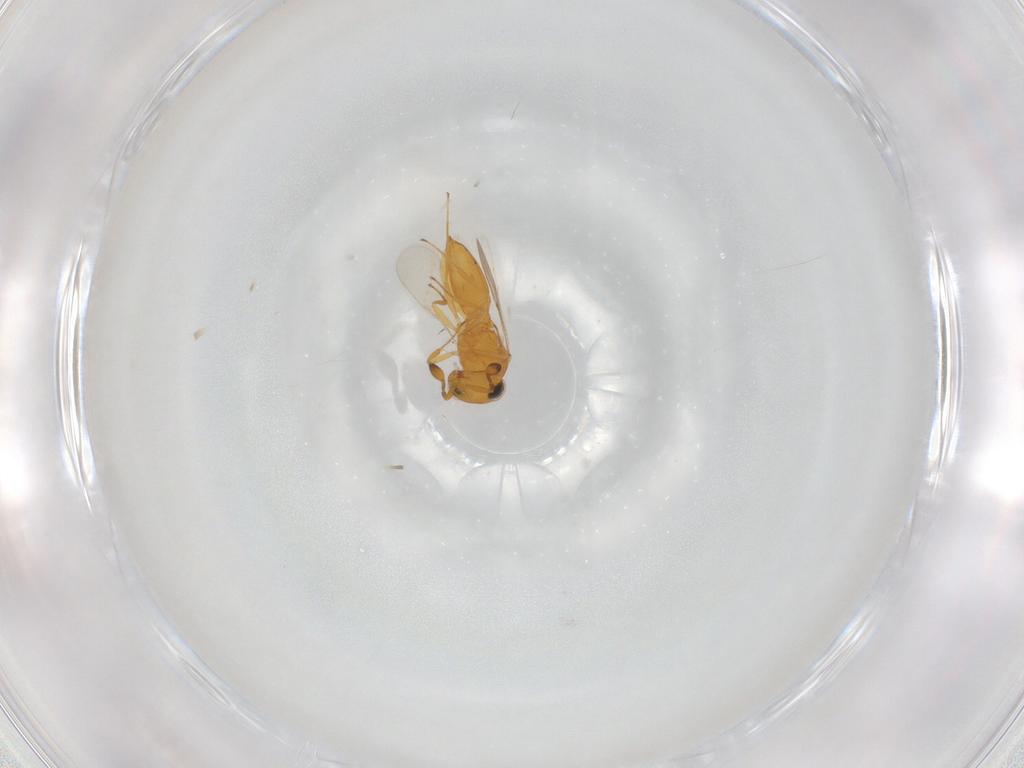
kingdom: Animalia
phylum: Arthropoda
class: Insecta
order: Hymenoptera
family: Scelionidae
